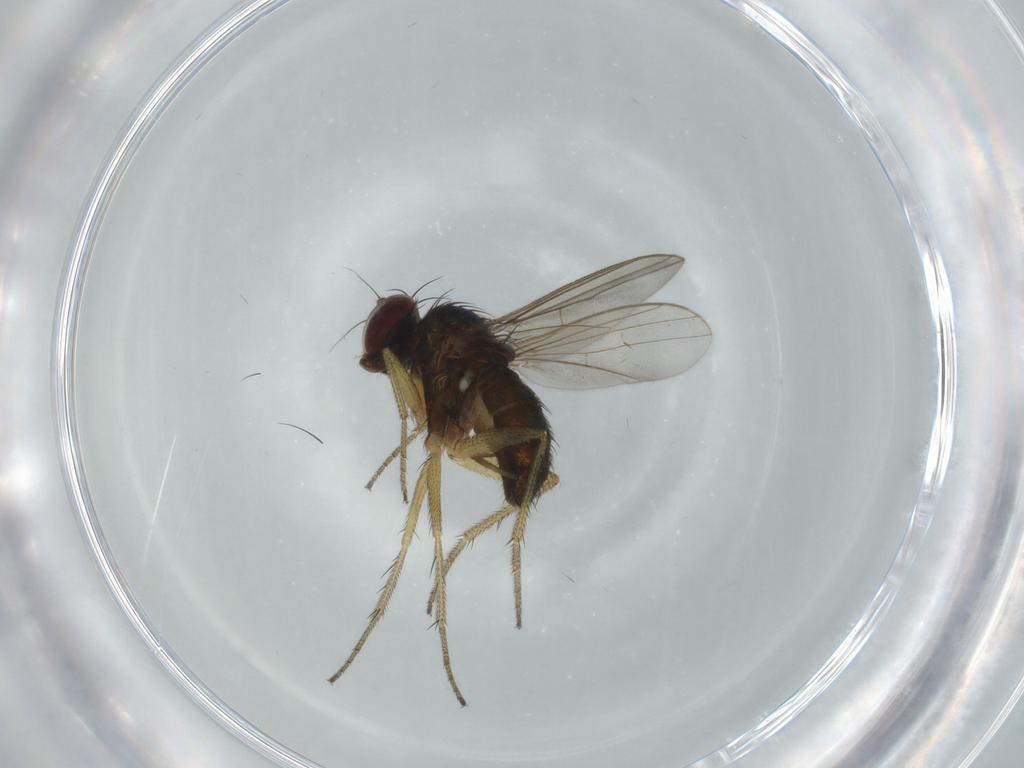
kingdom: Animalia
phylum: Arthropoda
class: Insecta
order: Diptera
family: Dolichopodidae
